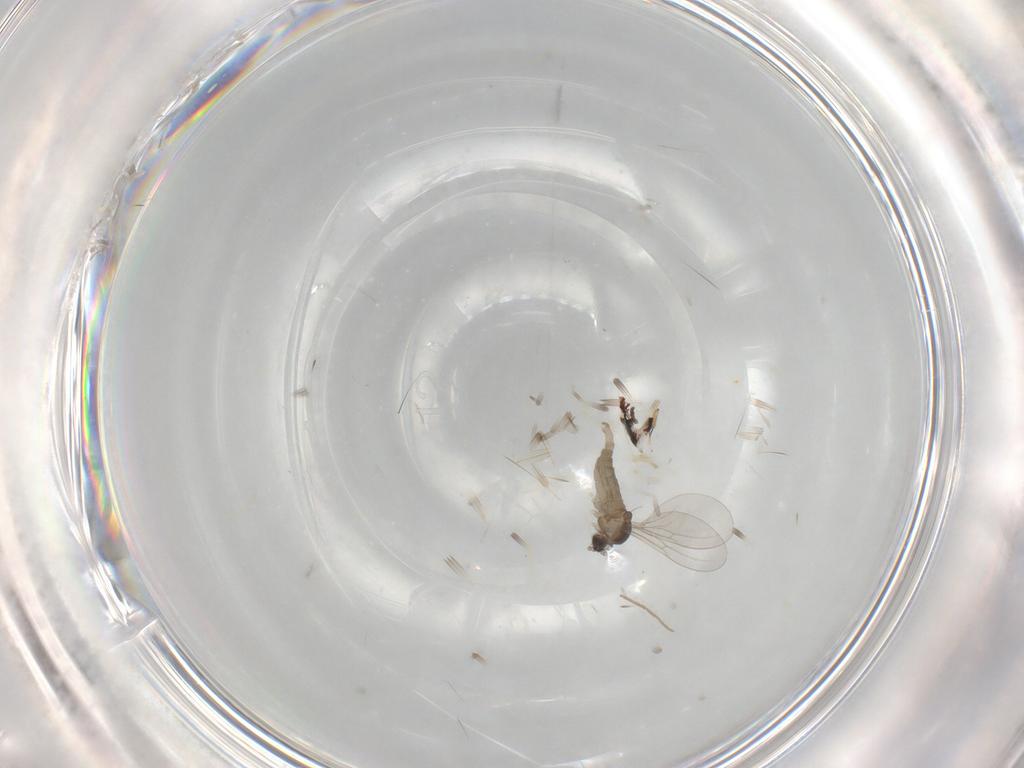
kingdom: Animalia
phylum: Arthropoda
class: Insecta
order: Diptera
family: Cecidomyiidae
